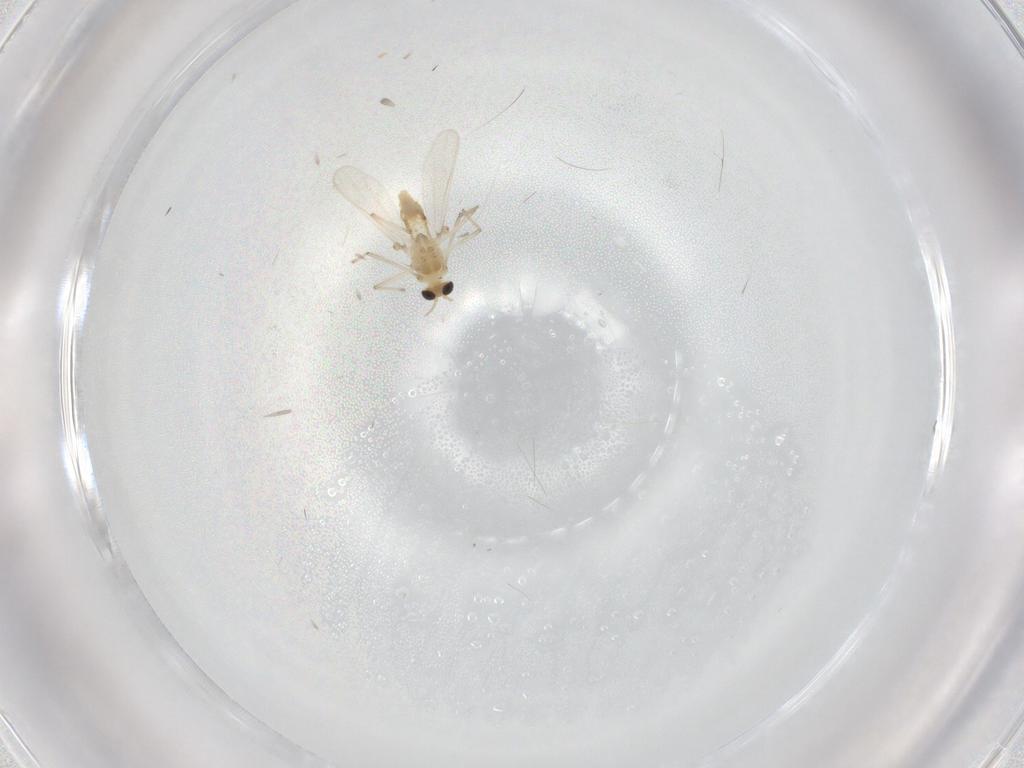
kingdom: Animalia
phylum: Arthropoda
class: Insecta
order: Diptera
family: Chironomidae
